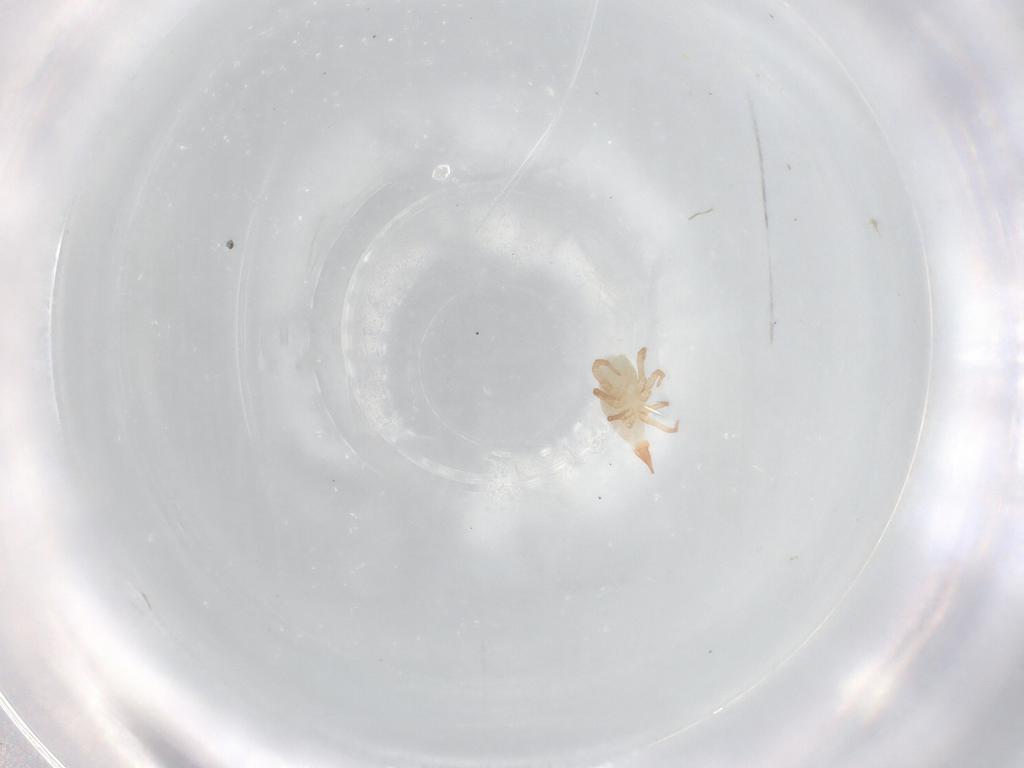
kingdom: Animalia
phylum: Arthropoda
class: Arachnida
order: Trombidiformes
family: Bdellidae
